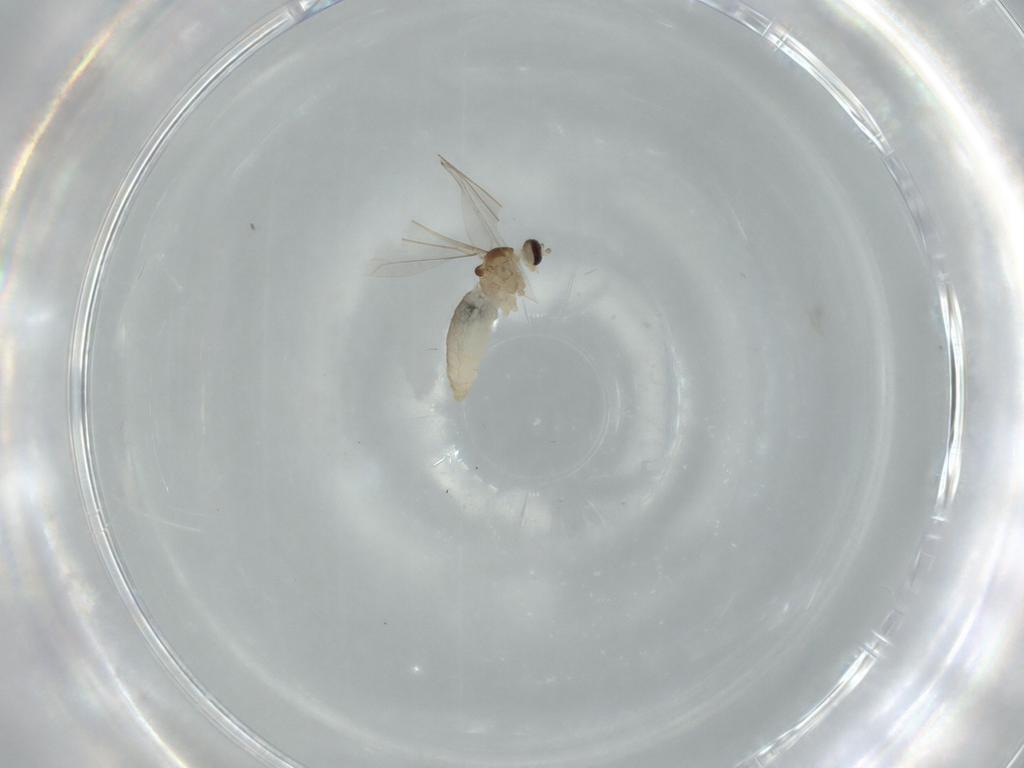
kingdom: Animalia
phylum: Arthropoda
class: Insecta
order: Diptera
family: Cecidomyiidae
